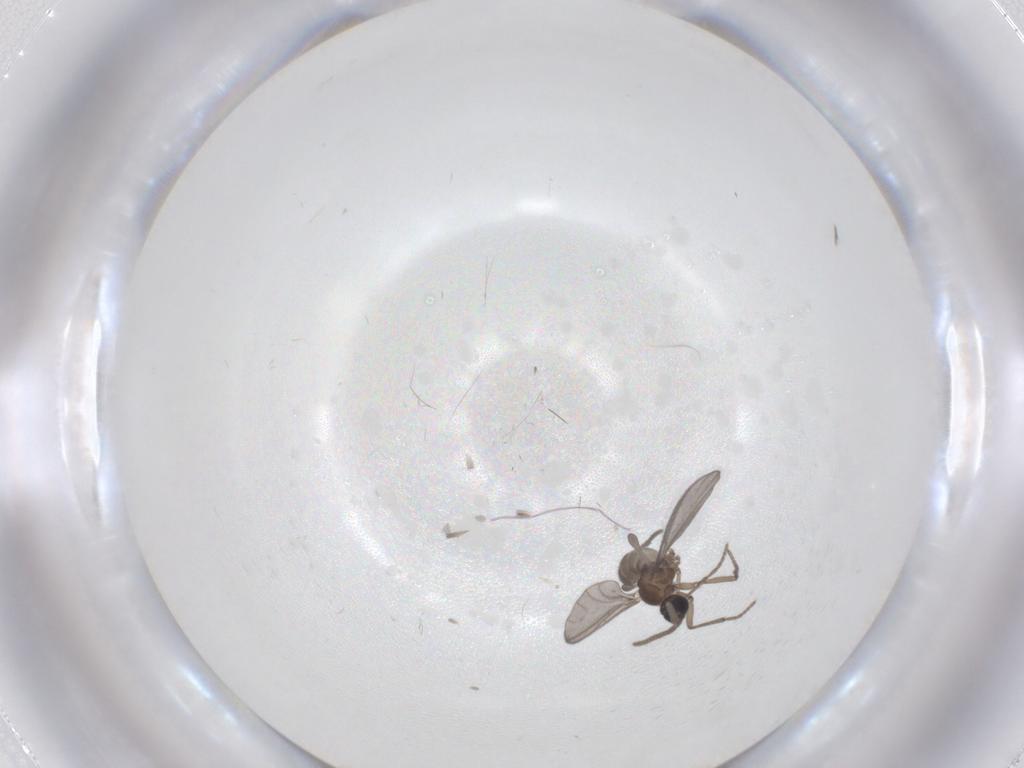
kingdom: Animalia
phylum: Arthropoda
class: Insecta
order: Diptera
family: Sciaridae
